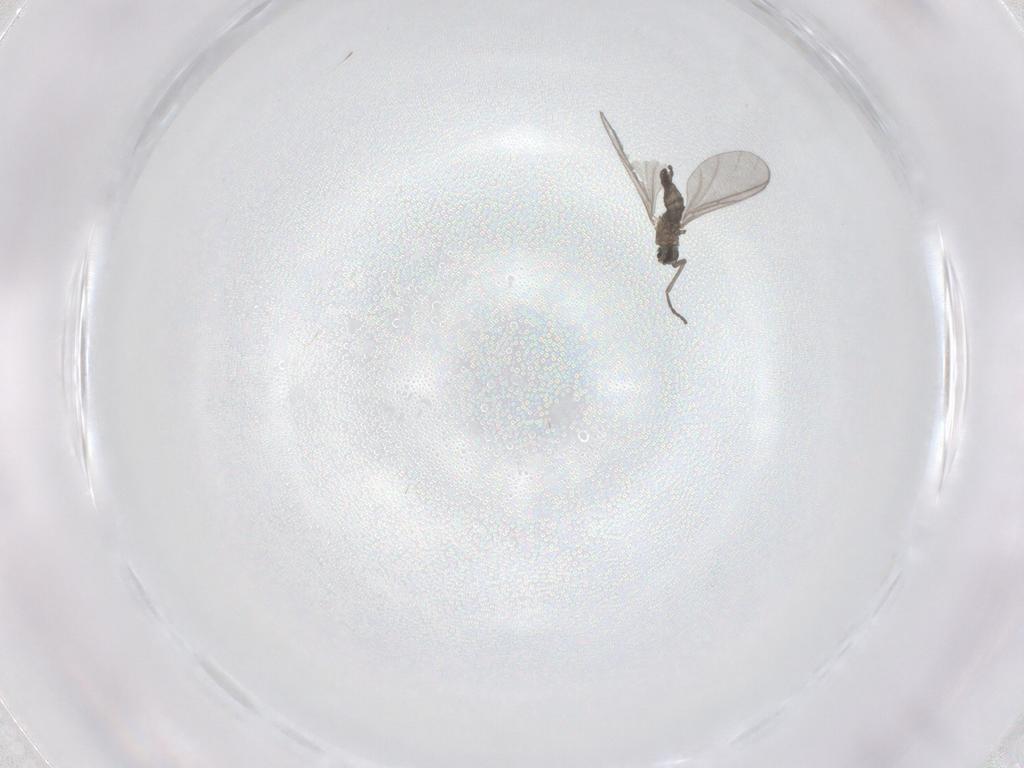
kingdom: Animalia
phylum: Arthropoda
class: Insecta
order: Diptera
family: Sciaridae
